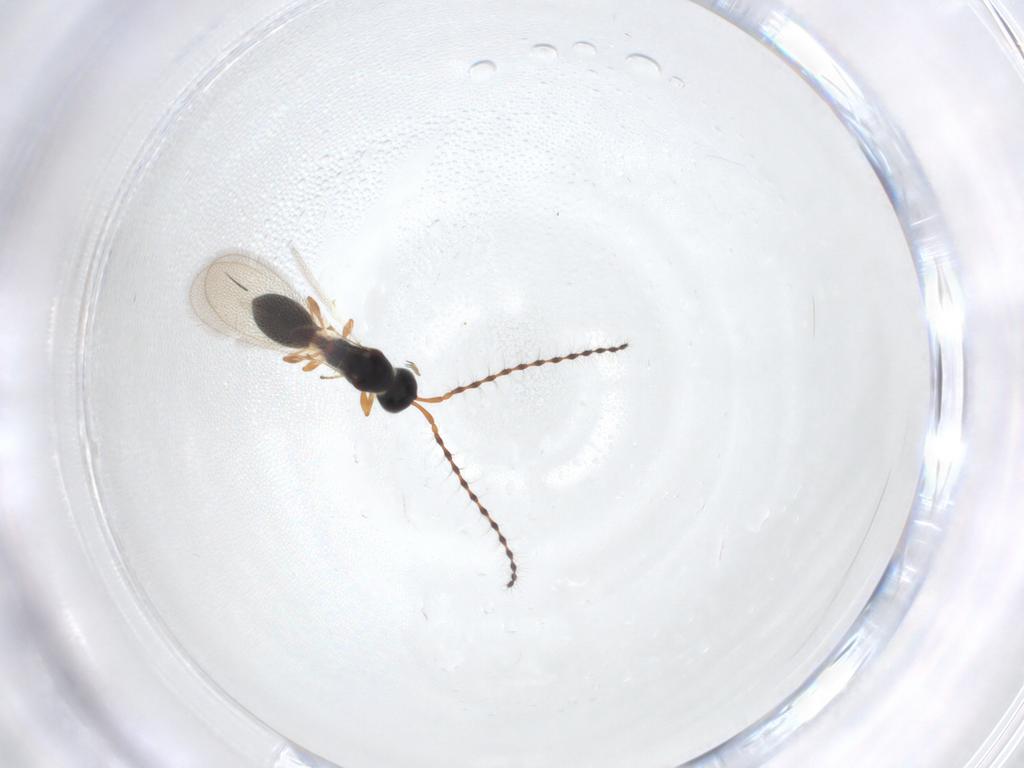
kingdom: Animalia
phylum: Arthropoda
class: Insecta
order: Hymenoptera
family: Diapriidae
